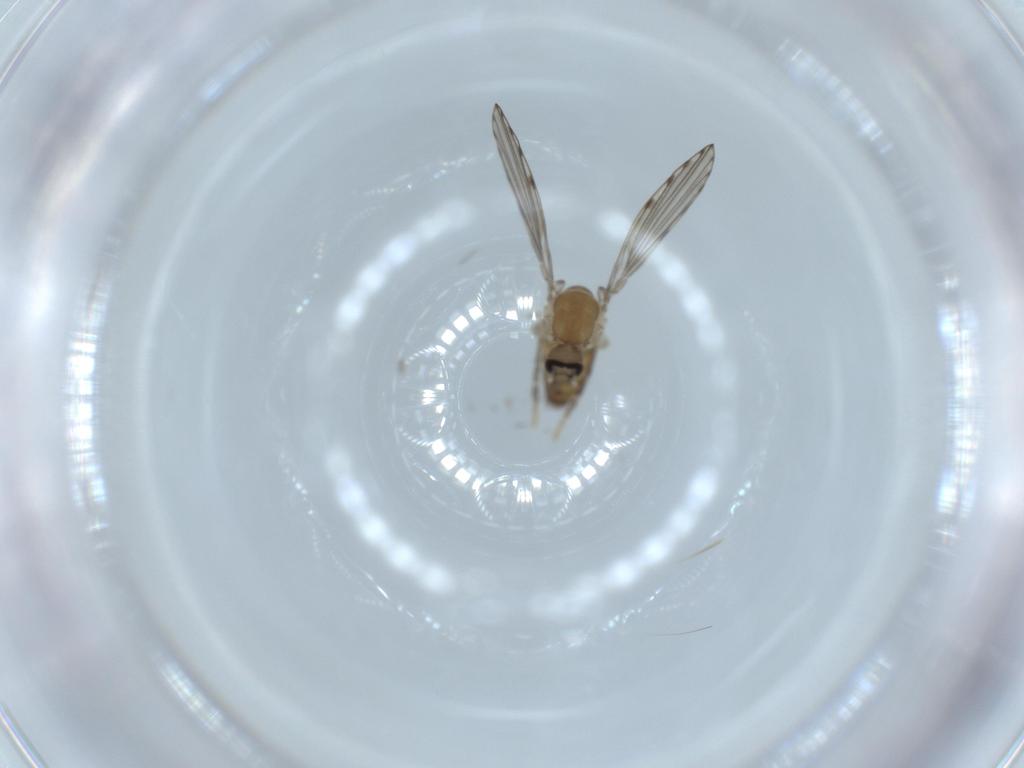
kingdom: Animalia
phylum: Arthropoda
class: Insecta
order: Diptera
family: Psychodidae
